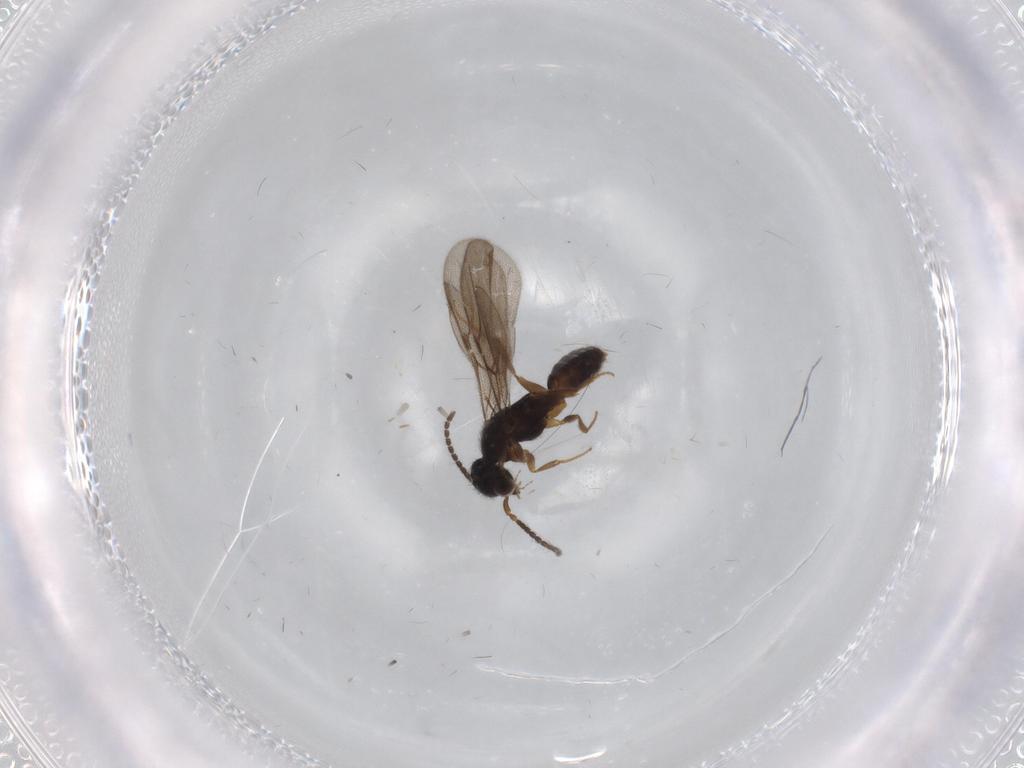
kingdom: Animalia
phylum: Arthropoda
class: Insecta
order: Hymenoptera
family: Bethylidae
